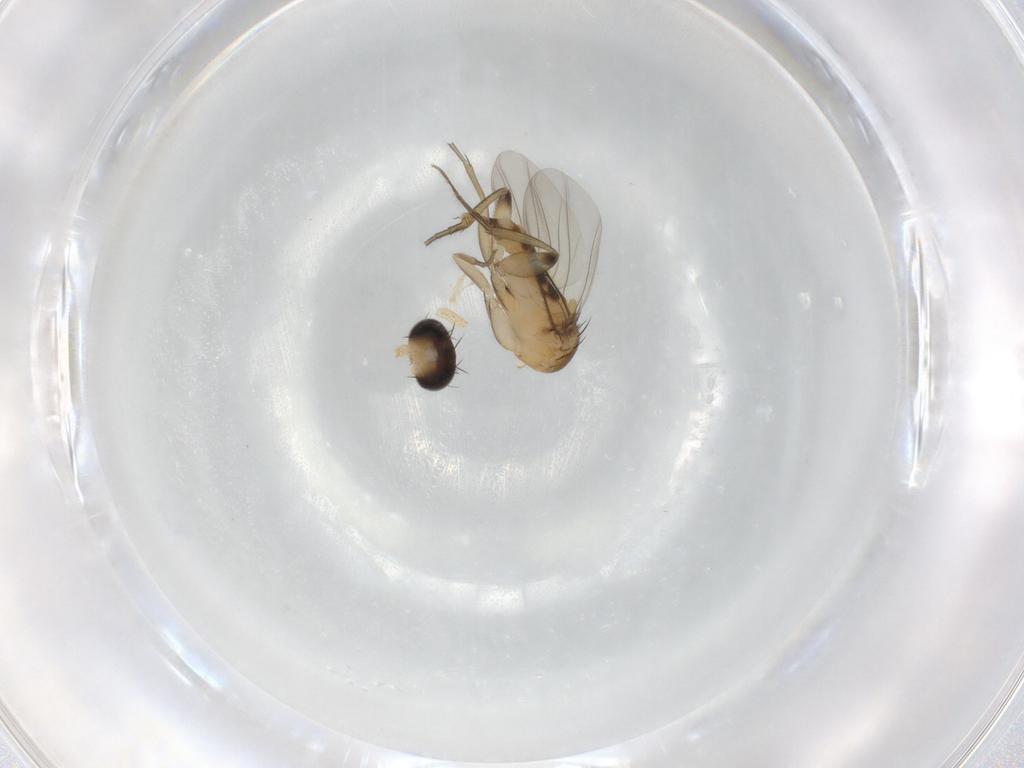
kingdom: Animalia
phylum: Arthropoda
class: Insecta
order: Diptera
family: Phoridae
